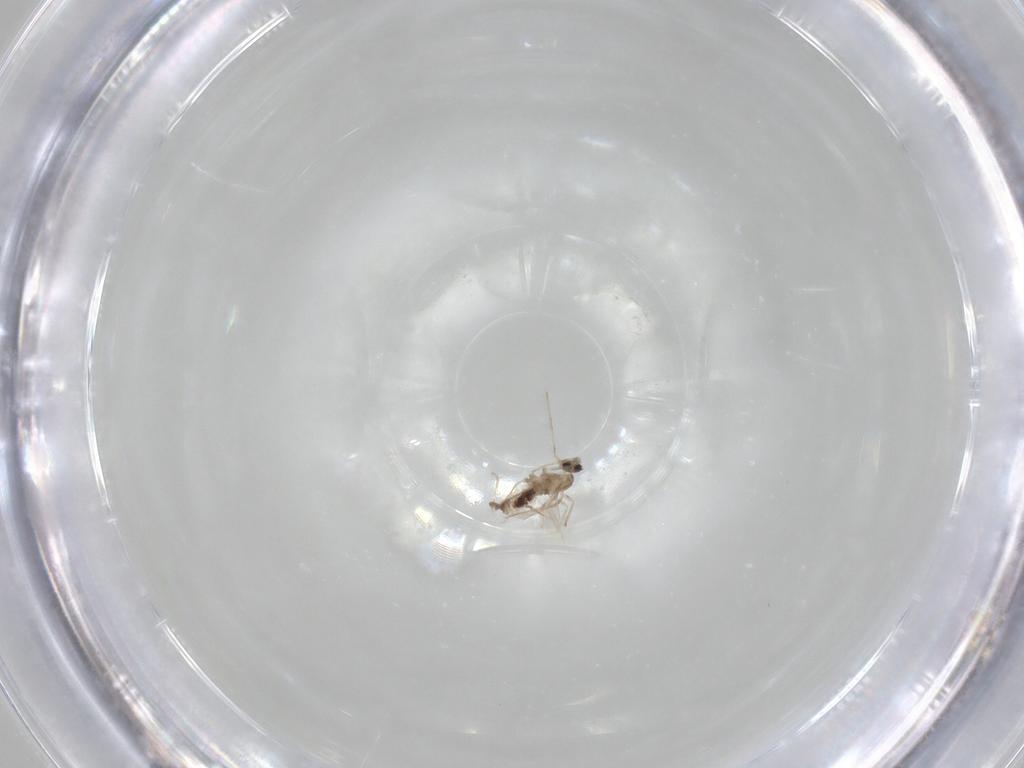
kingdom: Animalia
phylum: Arthropoda
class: Insecta
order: Diptera
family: Cecidomyiidae
